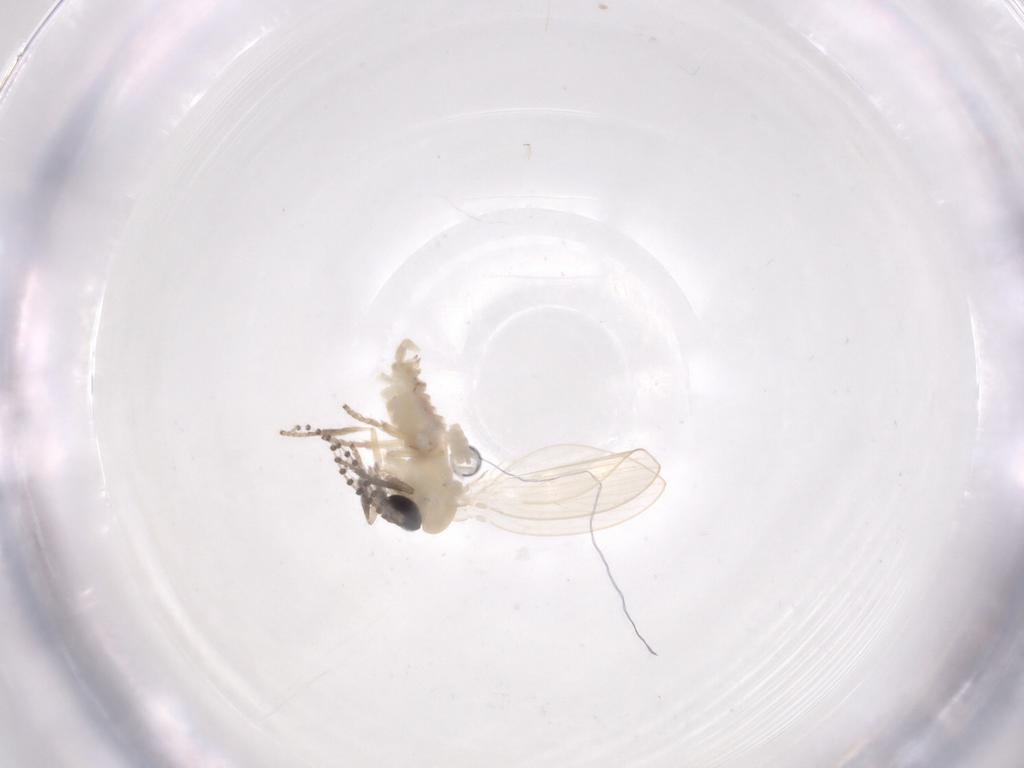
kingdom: Animalia
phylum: Arthropoda
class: Insecta
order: Diptera
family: Psychodidae
